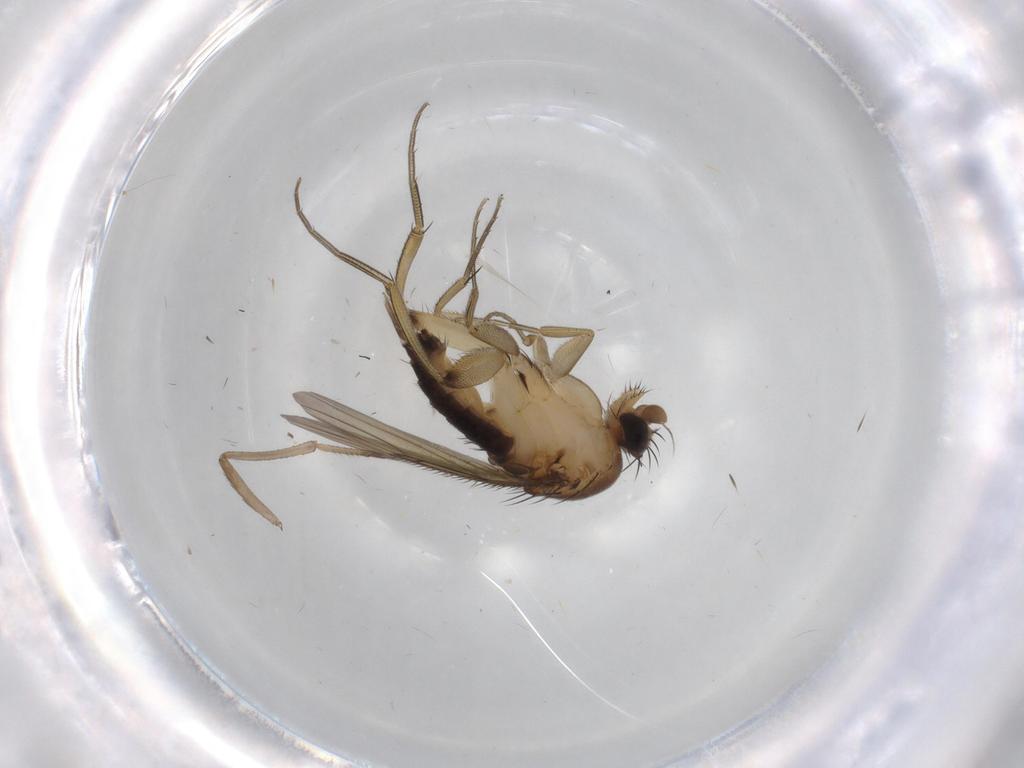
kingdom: Animalia
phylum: Arthropoda
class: Insecta
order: Diptera
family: Phoridae
